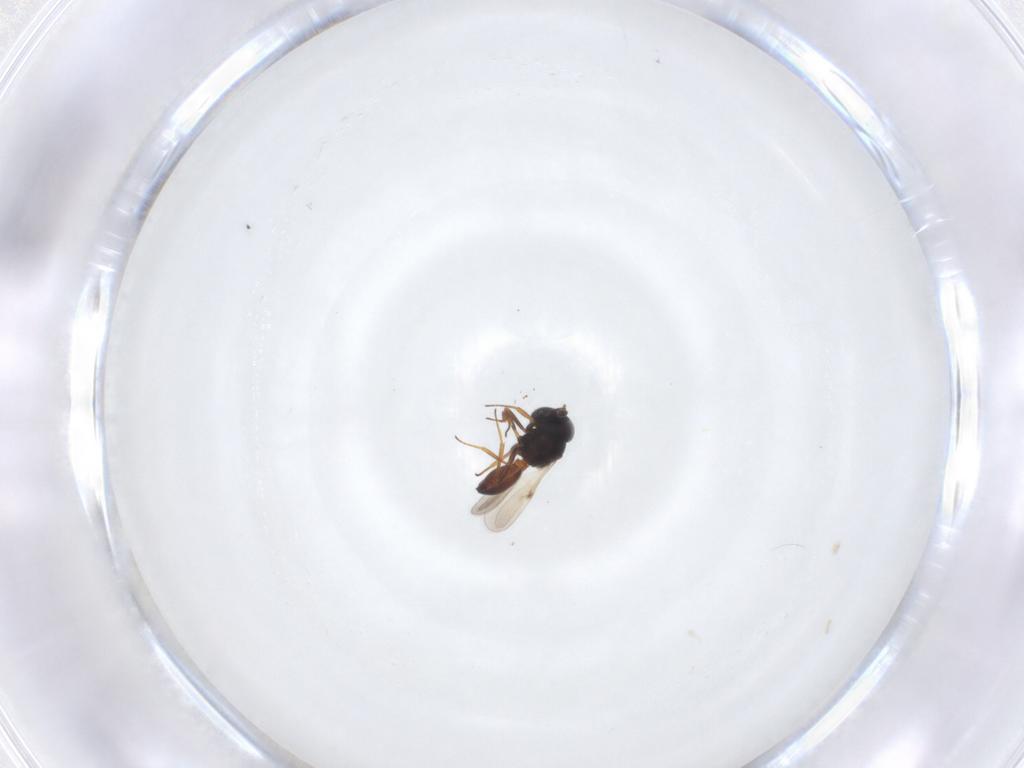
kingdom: Animalia
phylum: Arthropoda
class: Insecta
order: Hymenoptera
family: Scelionidae
